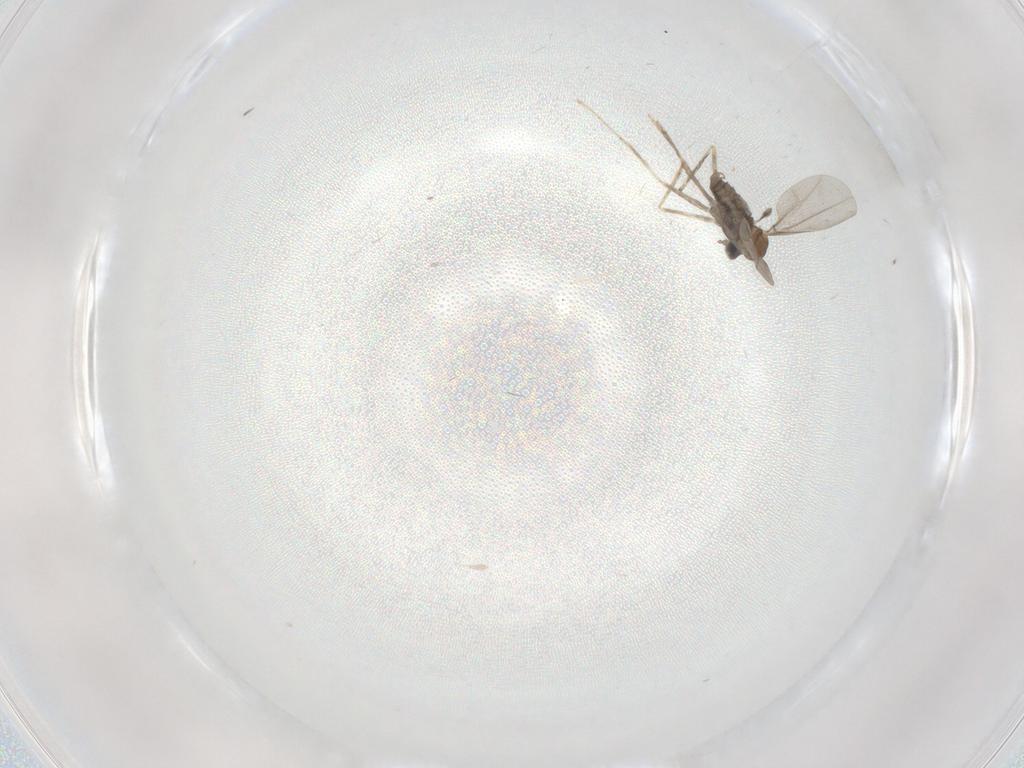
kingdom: Animalia
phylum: Arthropoda
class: Insecta
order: Diptera
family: Cecidomyiidae
